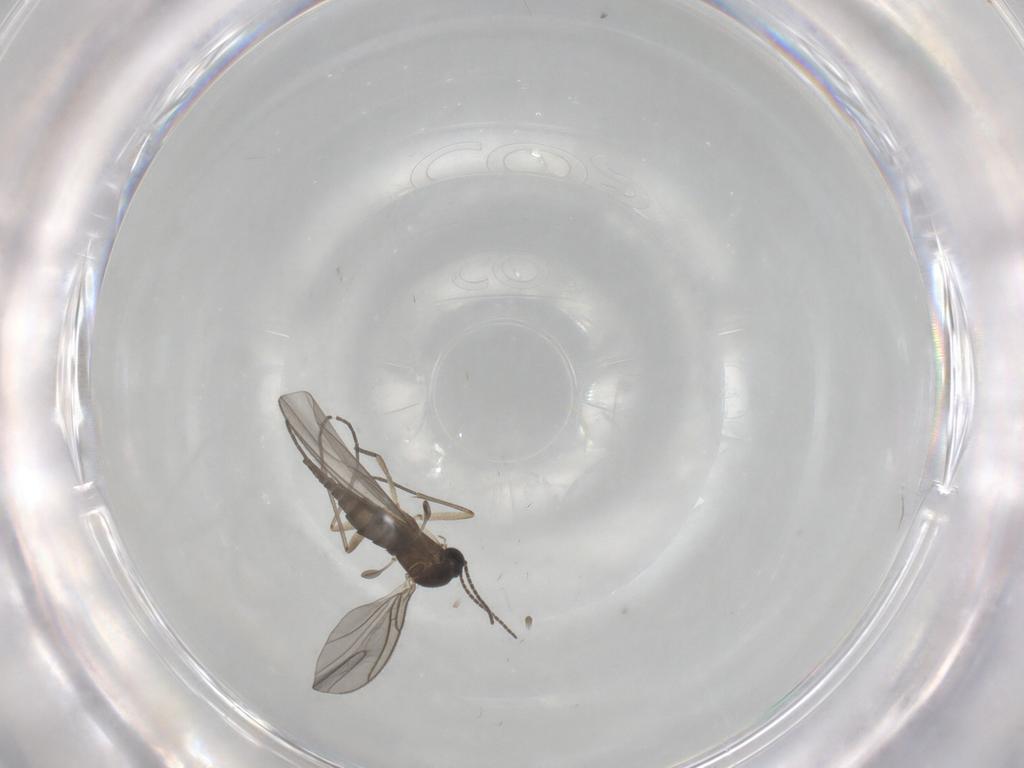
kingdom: Animalia
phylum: Arthropoda
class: Insecta
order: Diptera
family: Sciaridae
